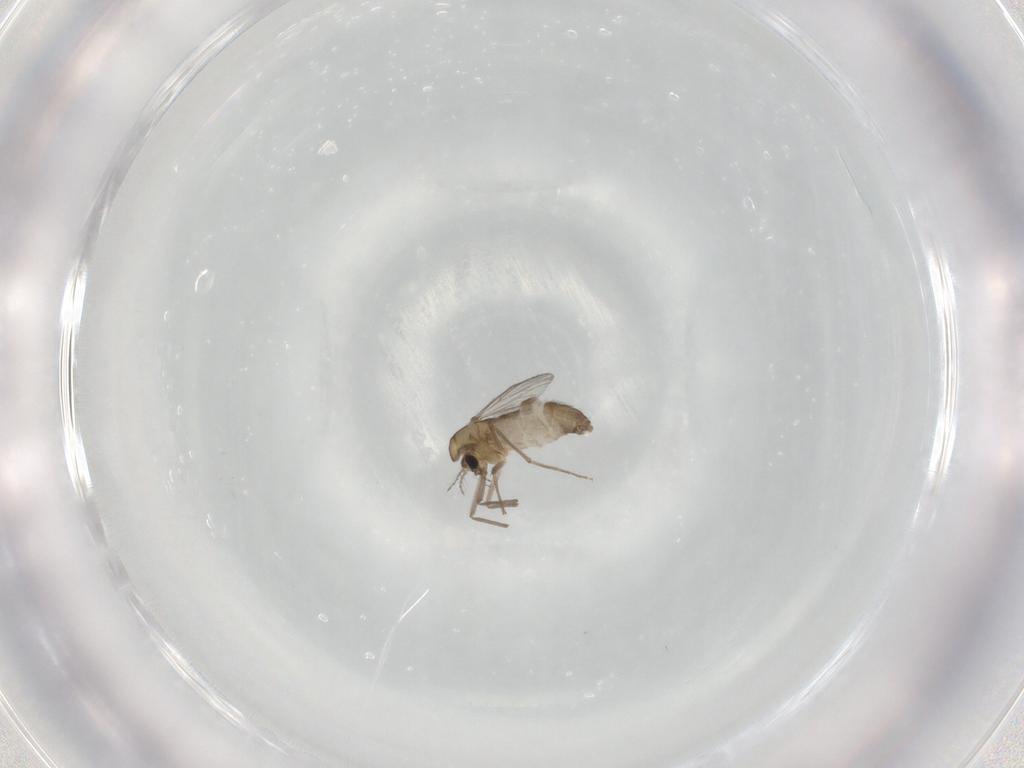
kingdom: Animalia
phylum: Arthropoda
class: Insecta
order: Diptera
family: Chironomidae
